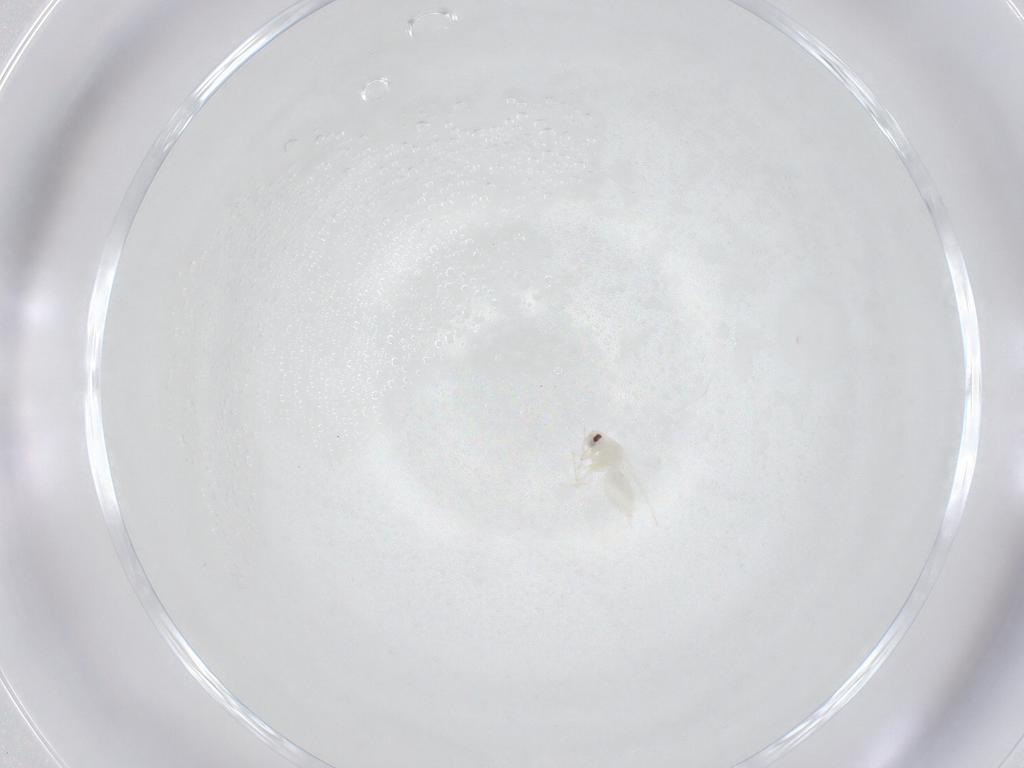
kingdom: Animalia
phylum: Arthropoda
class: Insecta
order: Hemiptera
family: Aleyrodidae
